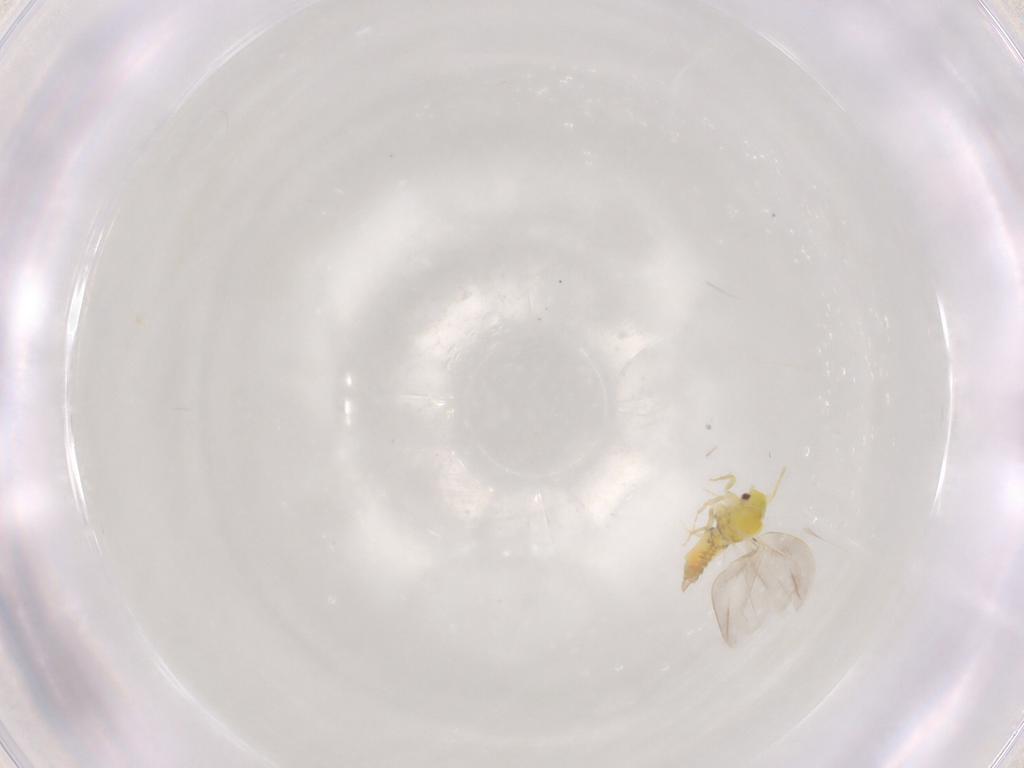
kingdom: Animalia
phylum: Arthropoda
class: Insecta
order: Hemiptera
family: Aleyrodidae
